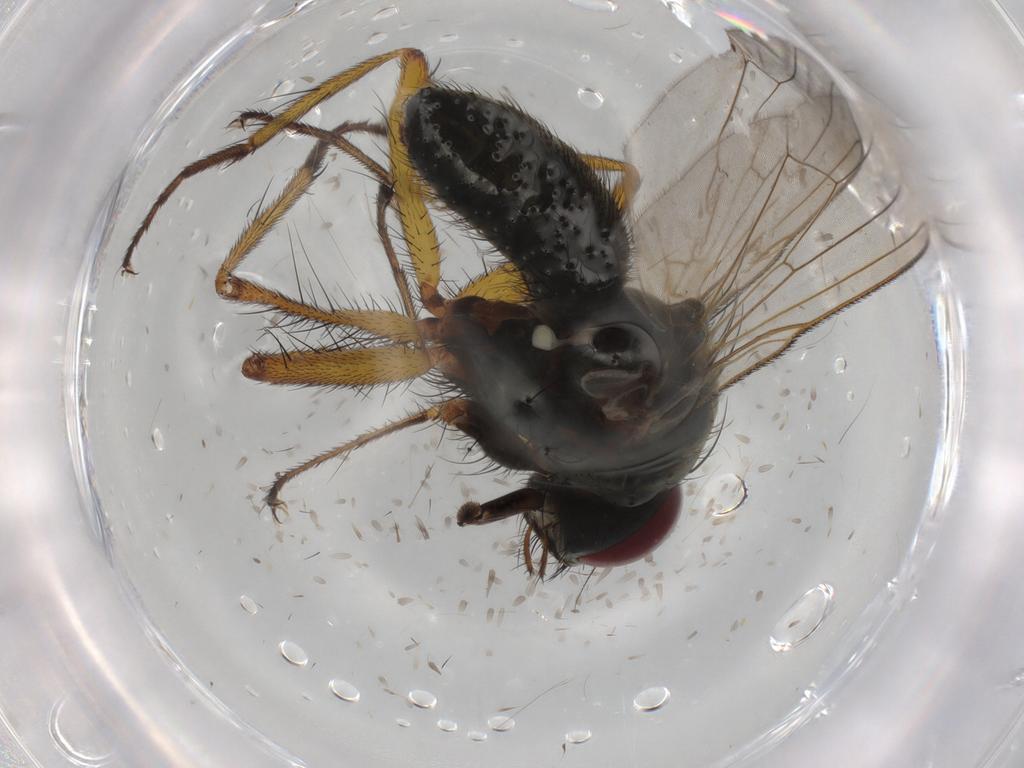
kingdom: Animalia
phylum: Arthropoda
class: Insecta
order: Diptera
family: Muscidae
